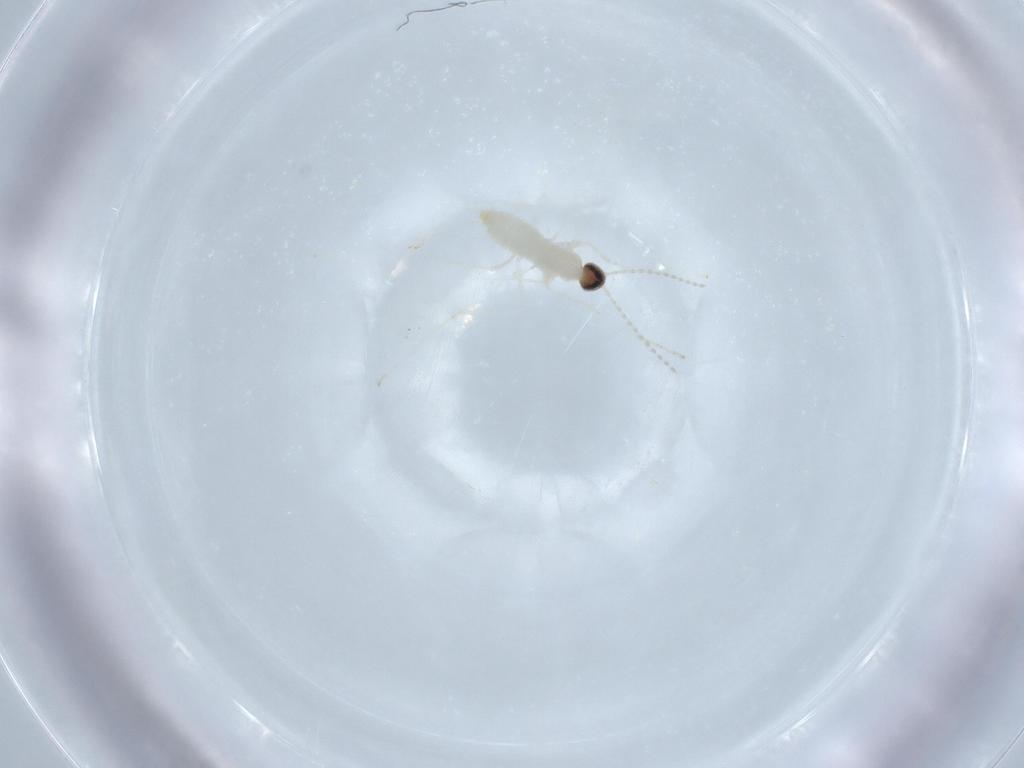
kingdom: Animalia
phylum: Arthropoda
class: Insecta
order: Diptera
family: Cecidomyiidae
